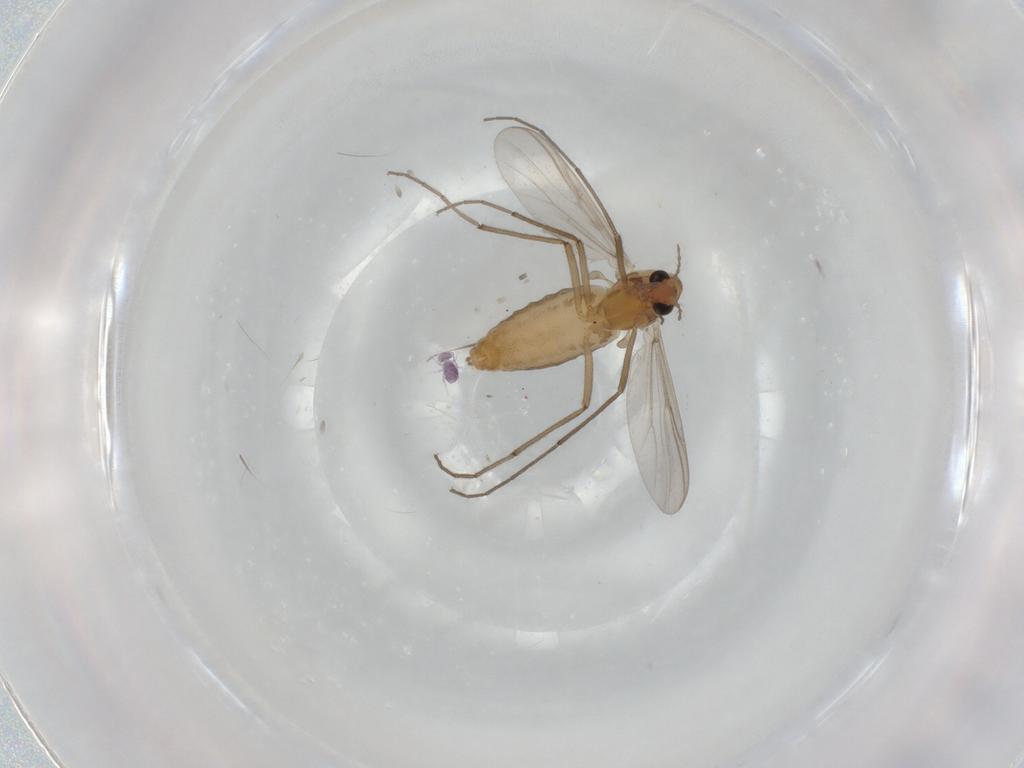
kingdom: Animalia
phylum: Arthropoda
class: Insecta
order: Diptera
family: Chironomidae
